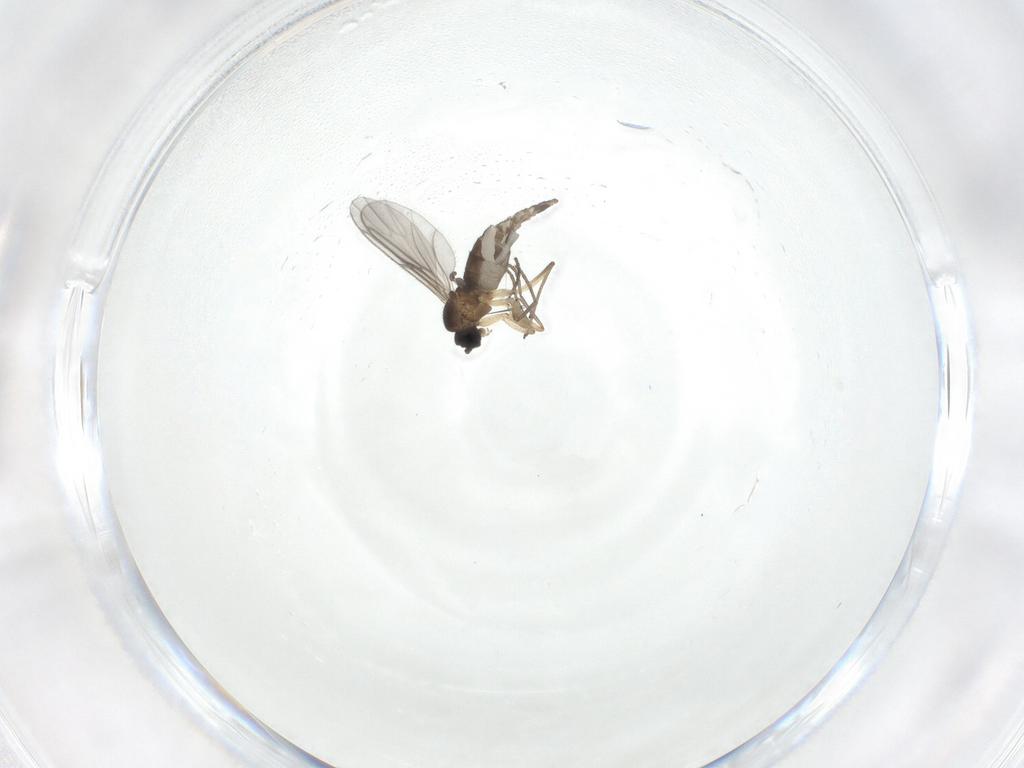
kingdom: Animalia
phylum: Arthropoda
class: Insecta
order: Diptera
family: Sciaridae
